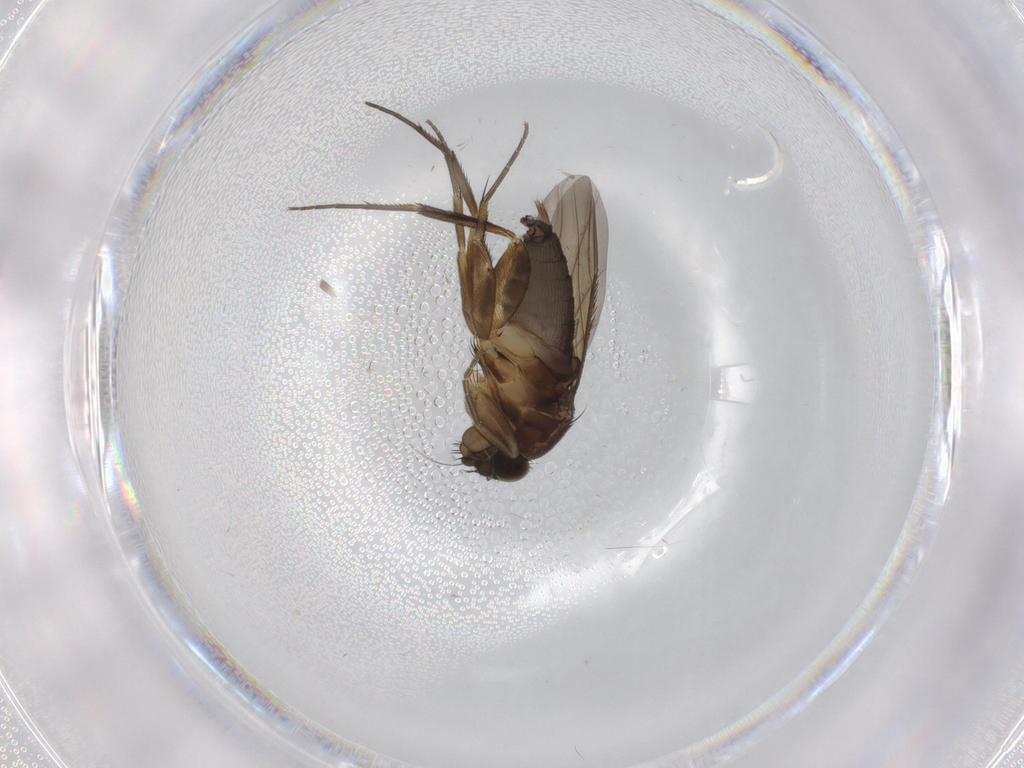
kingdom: Animalia
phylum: Arthropoda
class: Insecta
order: Diptera
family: Phoridae
